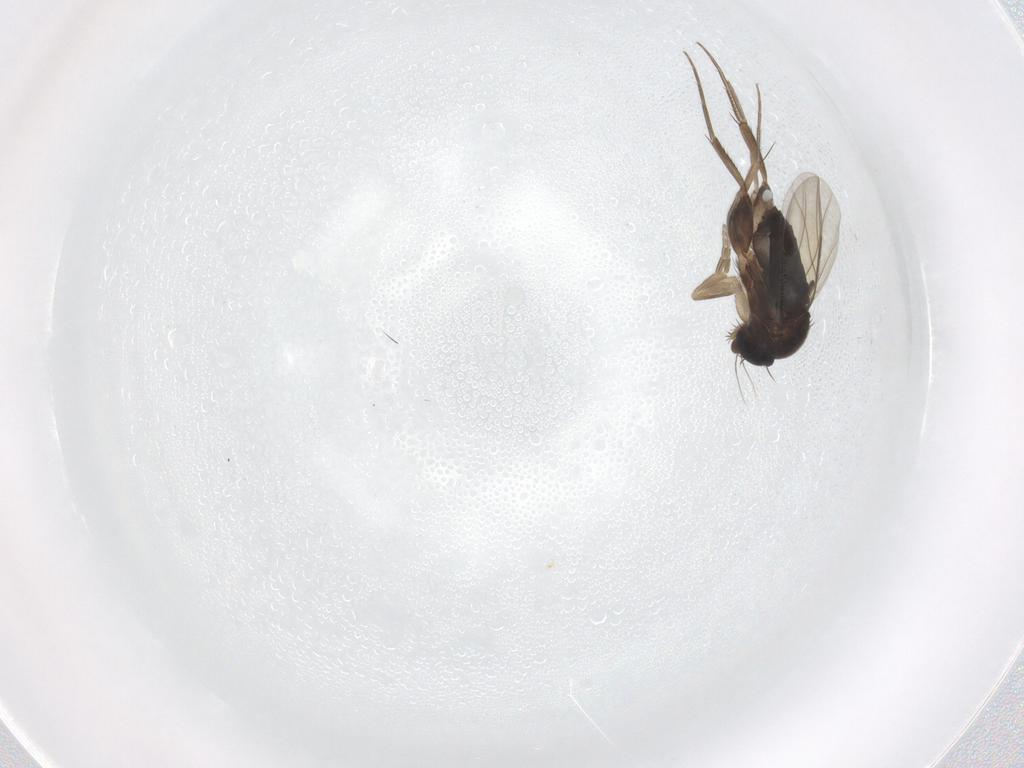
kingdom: Animalia
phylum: Arthropoda
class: Insecta
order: Diptera
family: Phoridae
